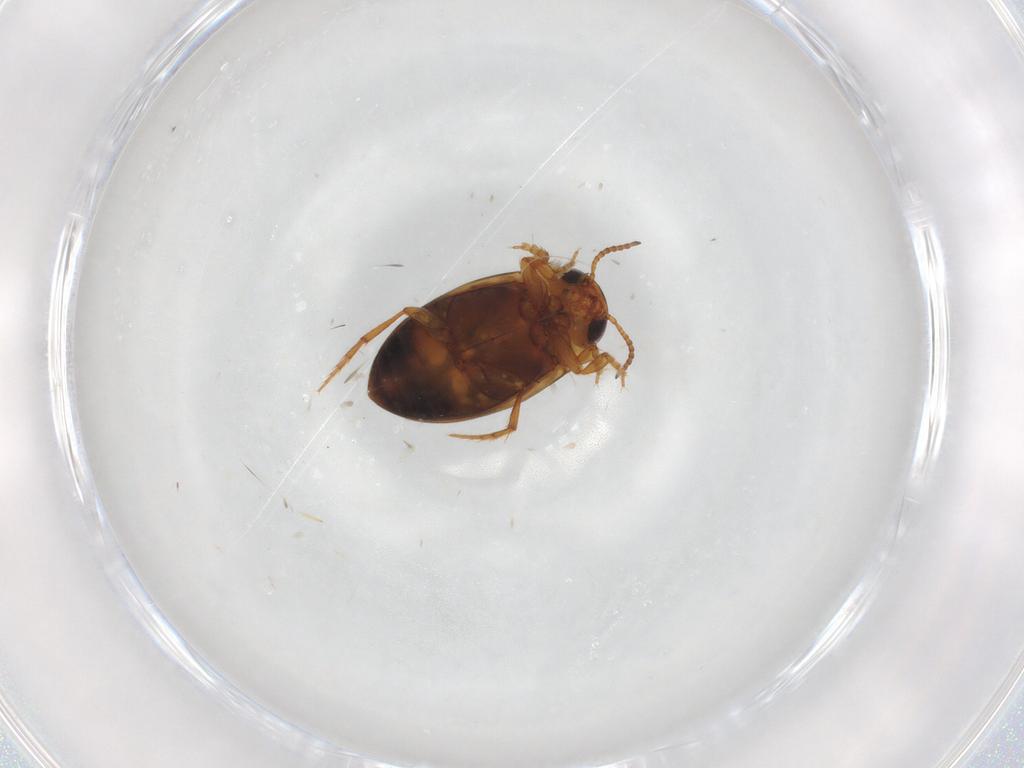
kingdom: Animalia
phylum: Arthropoda
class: Insecta
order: Coleoptera
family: Dytiscidae
